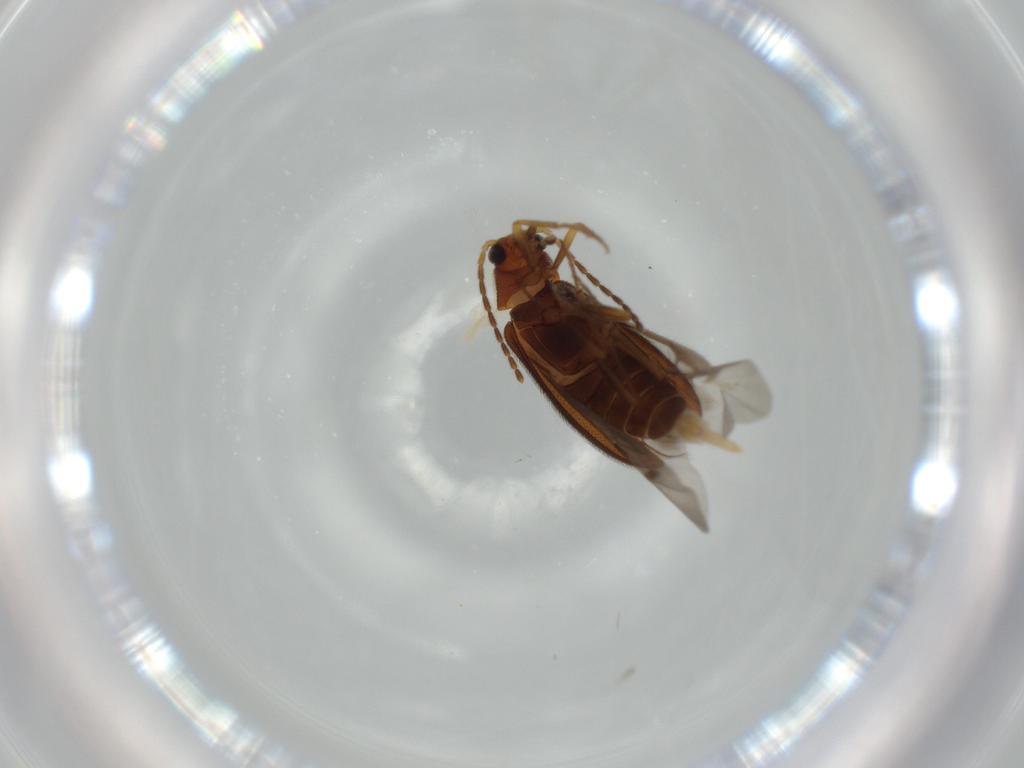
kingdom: Animalia
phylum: Arthropoda
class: Insecta
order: Coleoptera
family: Melandryidae
